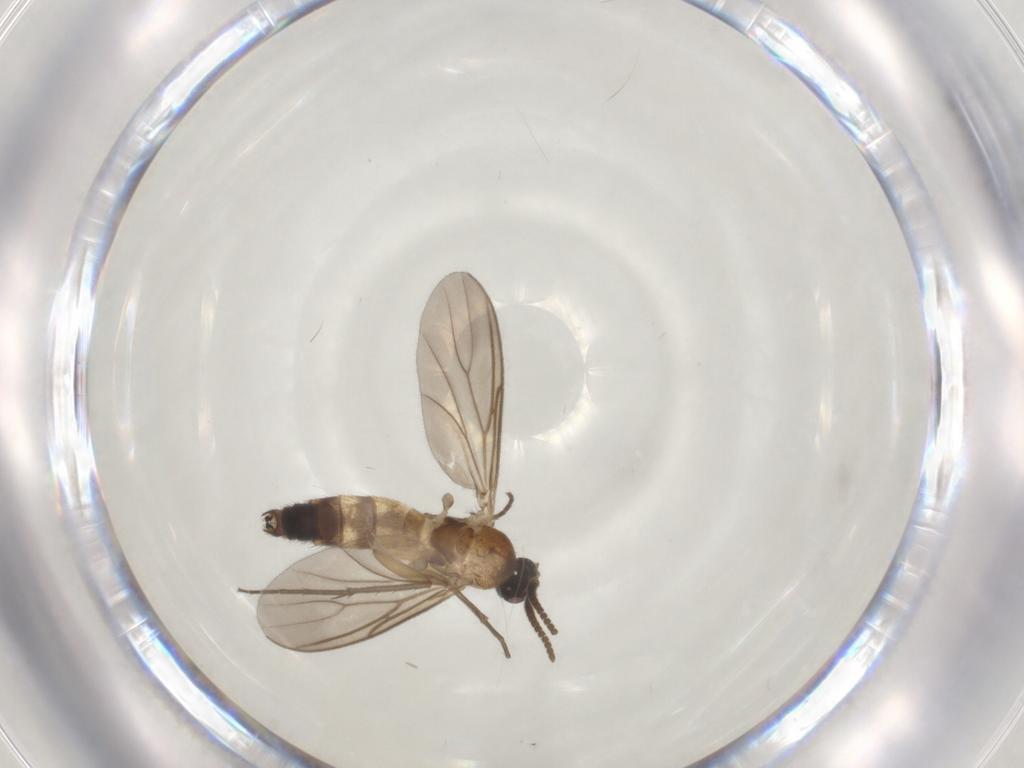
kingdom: Animalia
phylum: Arthropoda
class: Insecta
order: Diptera
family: Mycetophilidae
